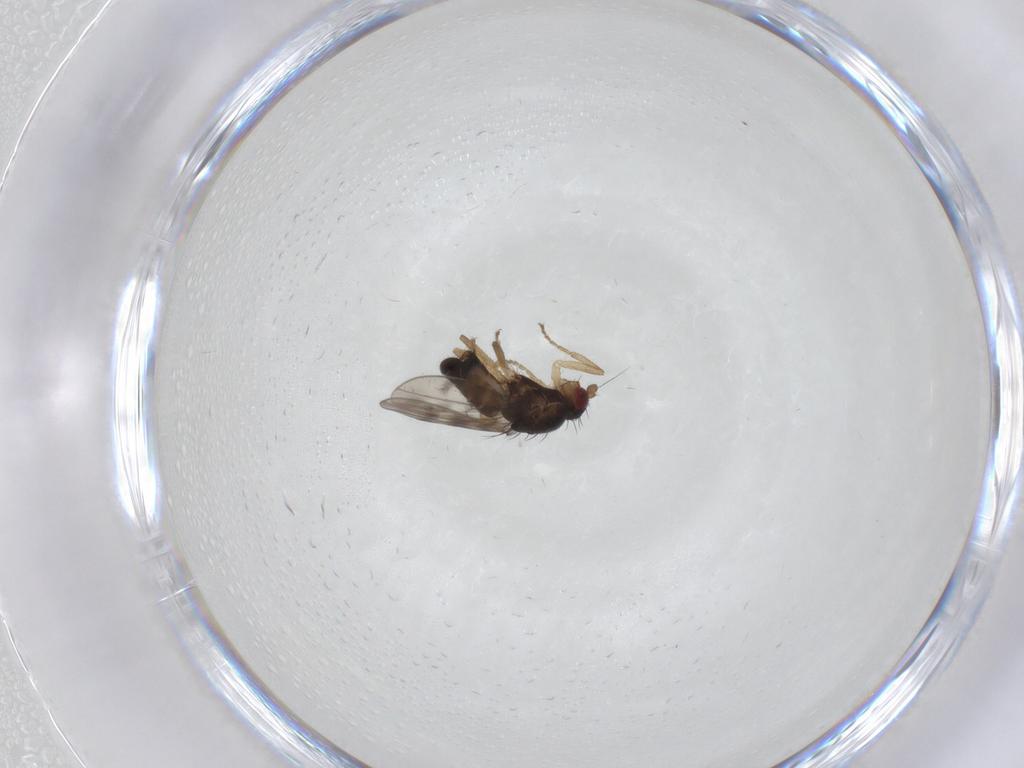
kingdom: Animalia
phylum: Arthropoda
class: Insecta
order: Diptera
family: Sphaeroceridae
